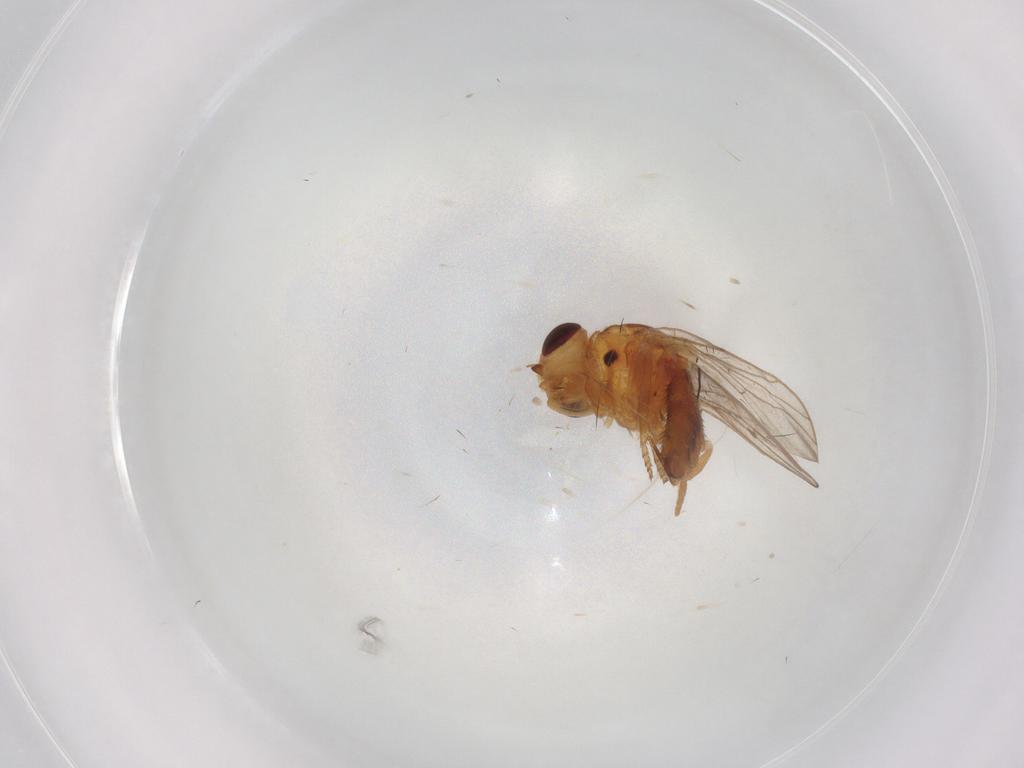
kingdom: Animalia
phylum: Arthropoda
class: Insecta
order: Diptera
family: Chloropidae
